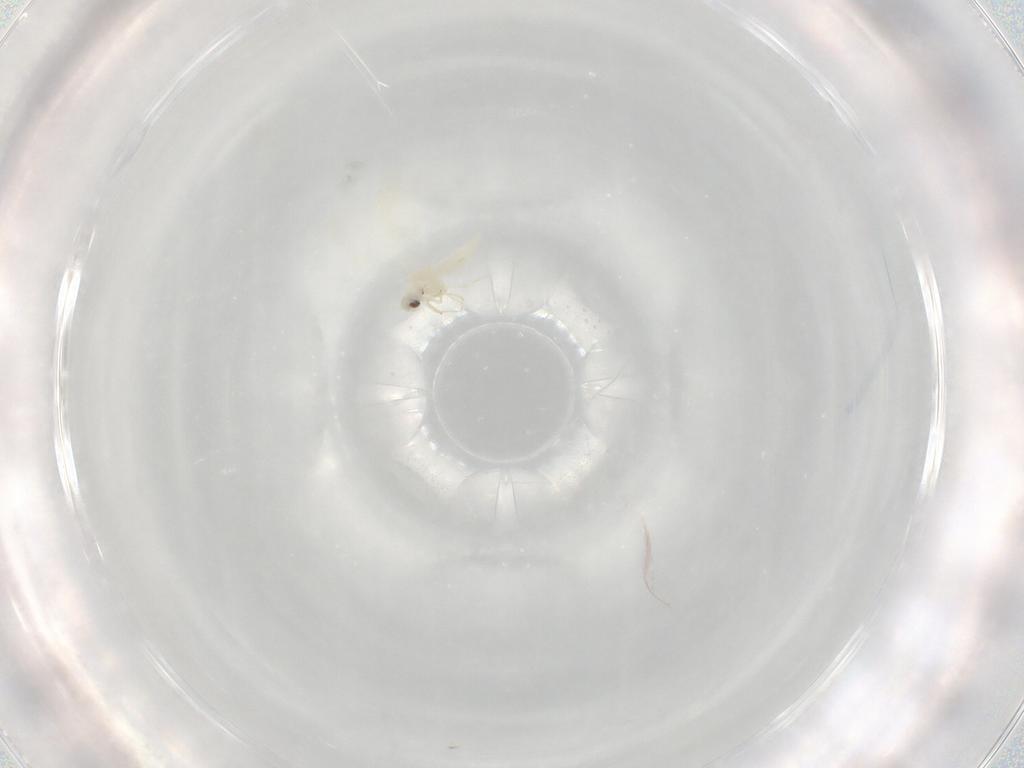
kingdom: Animalia
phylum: Arthropoda
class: Insecta
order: Hemiptera
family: Aleyrodidae
